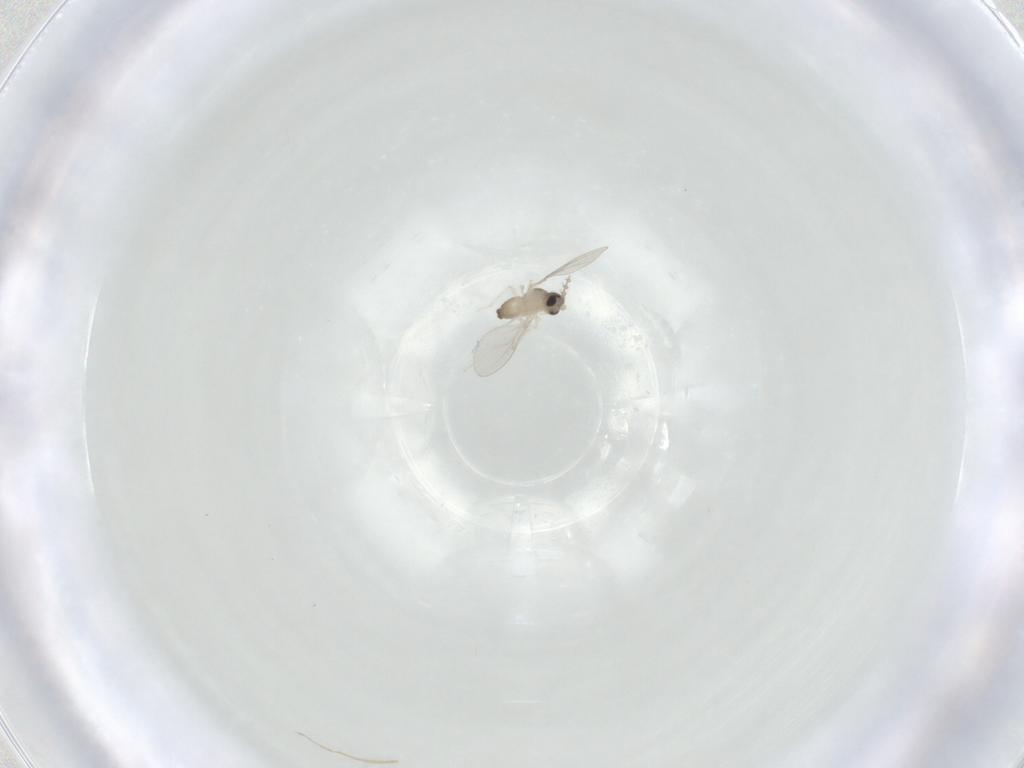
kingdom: Animalia
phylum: Arthropoda
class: Insecta
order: Diptera
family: Cecidomyiidae
